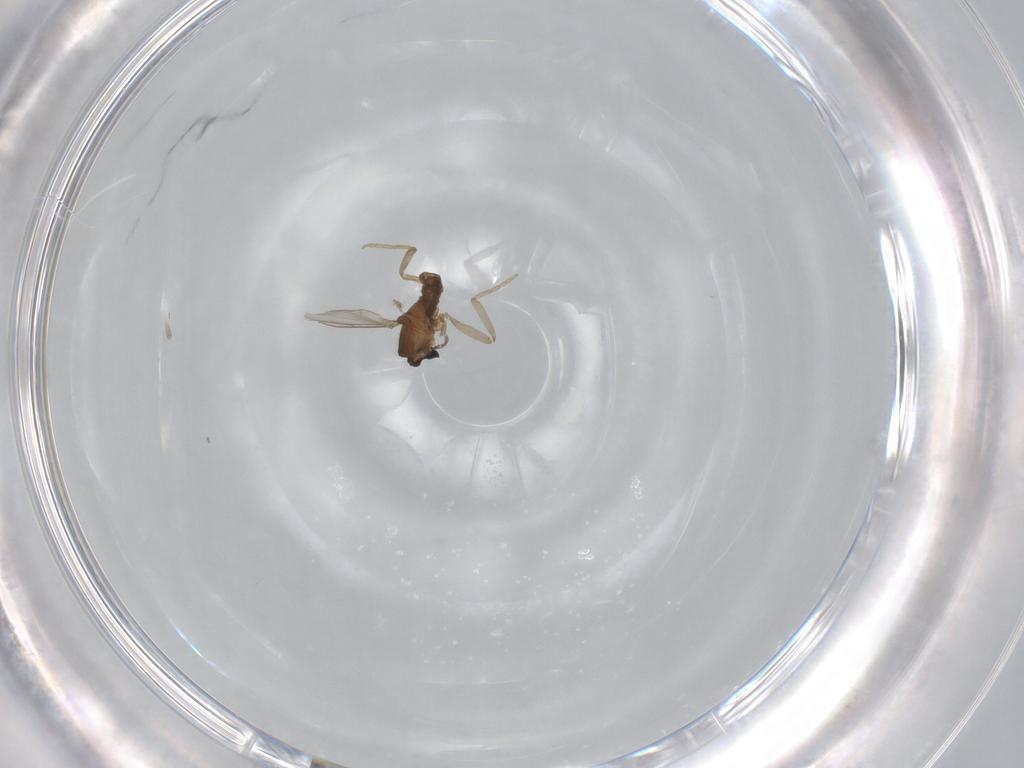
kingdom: Animalia
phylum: Arthropoda
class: Insecta
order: Diptera
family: Cecidomyiidae
